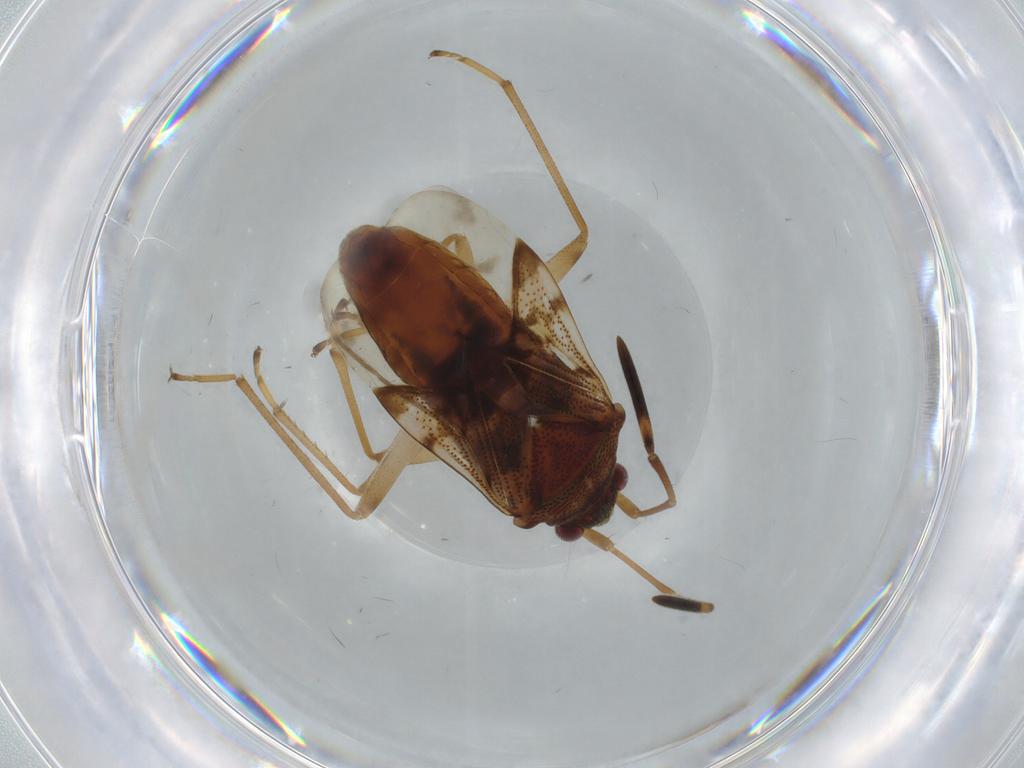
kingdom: Animalia
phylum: Arthropoda
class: Insecta
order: Hemiptera
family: Rhyparochromidae
